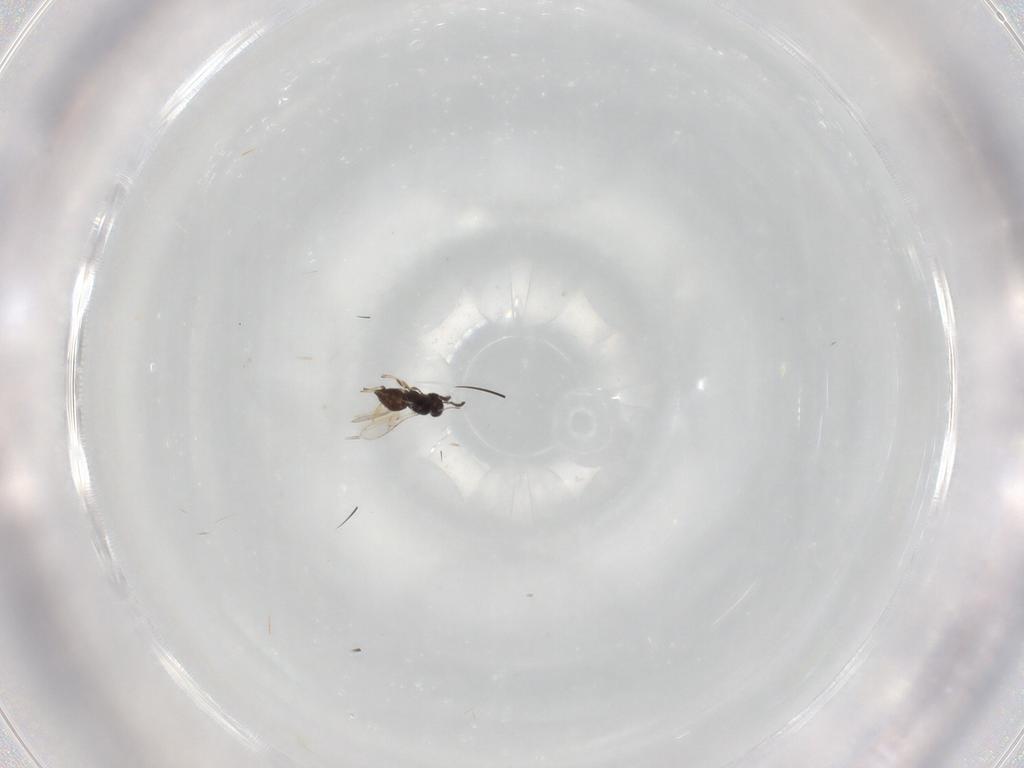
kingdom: Animalia
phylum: Arthropoda
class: Insecta
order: Hymenoptera
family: Scelionidae
